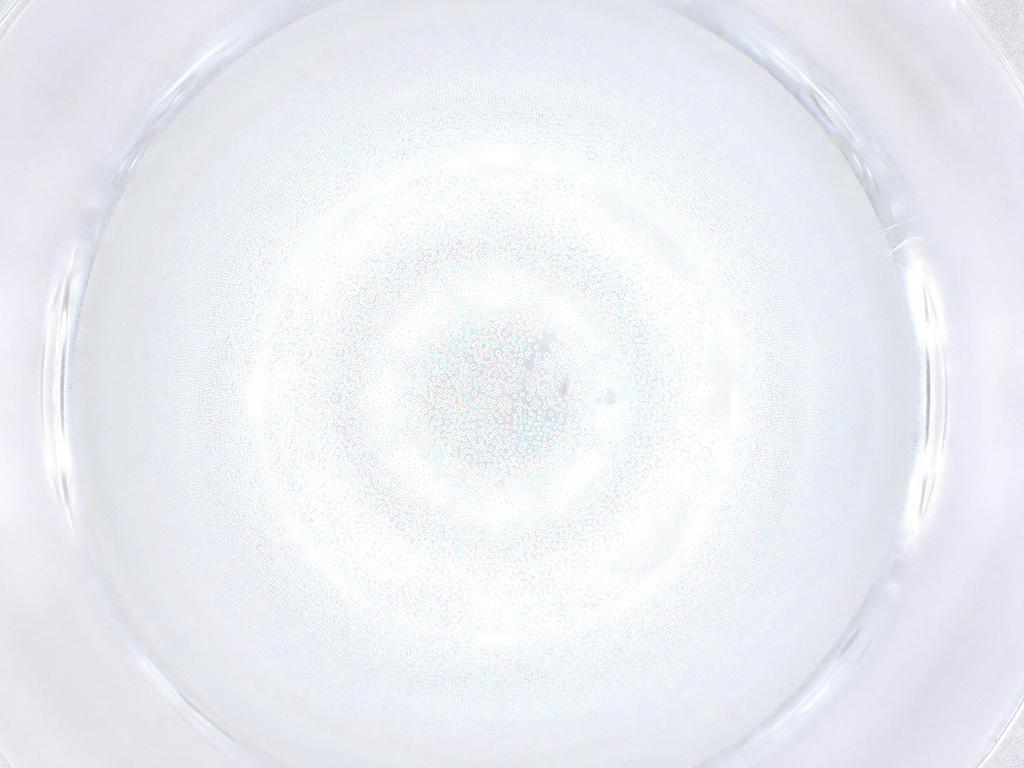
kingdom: Animalia
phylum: Arthropoda
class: Insecta
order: Diptera
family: Cecidomyiidae
